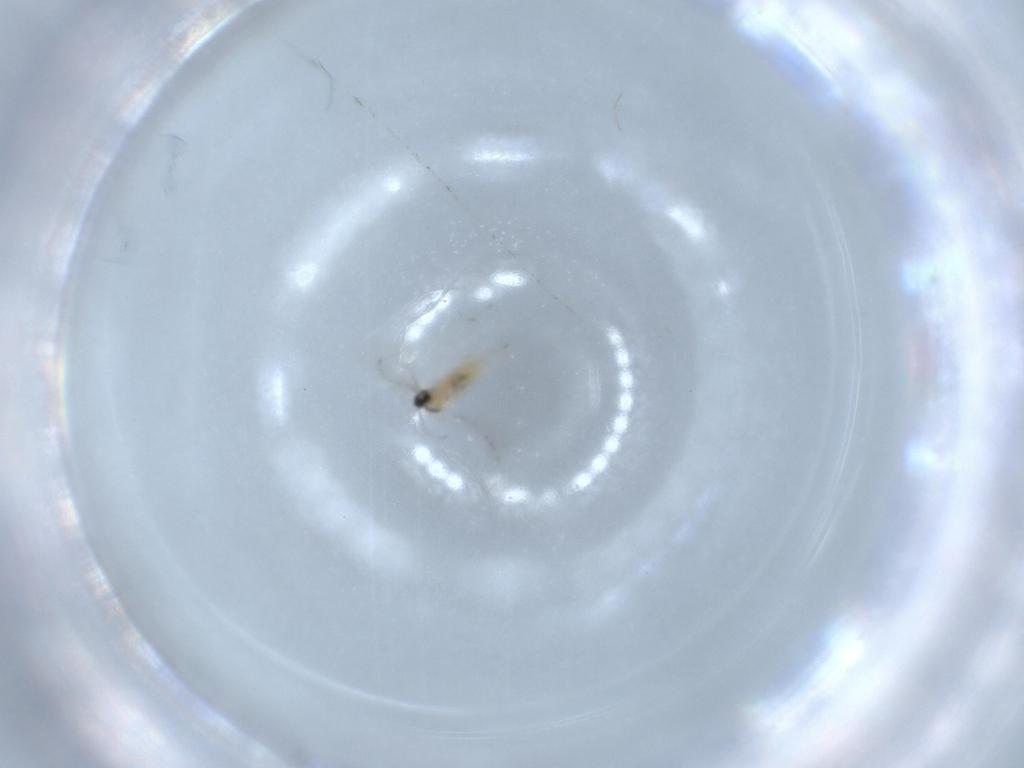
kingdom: Animalia
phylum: Arthropoda
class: Insecta
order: Diptera
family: Cecidomyiidae
